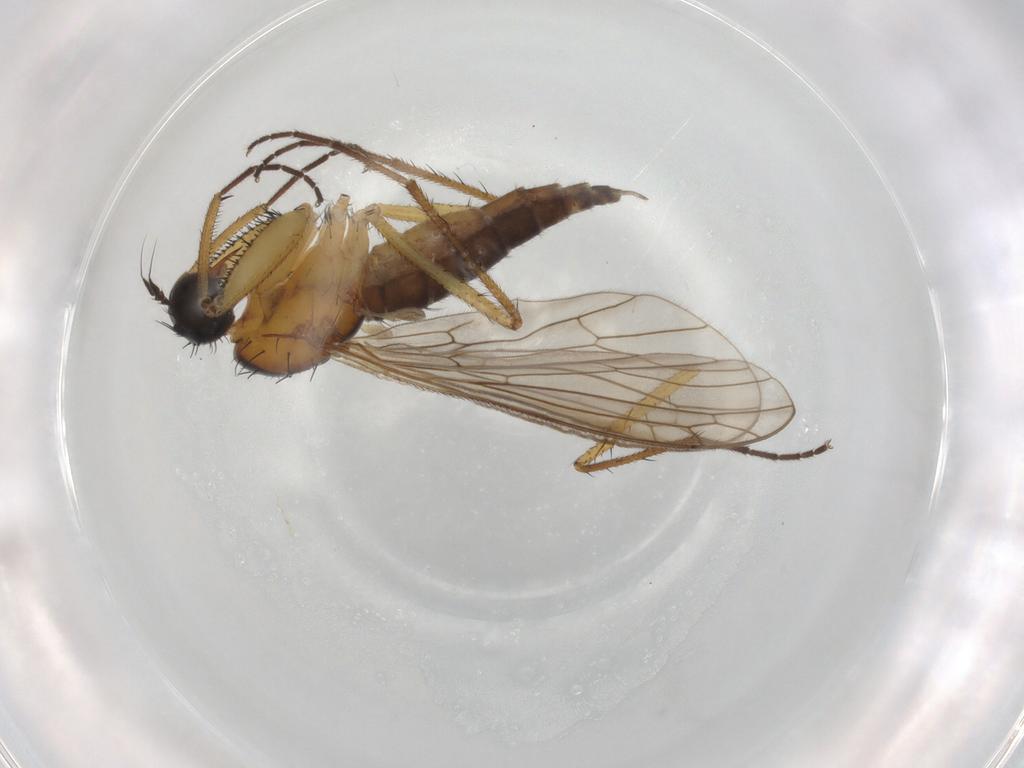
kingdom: Animalia
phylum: Arthropoda
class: Insecta
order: Diptera
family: Empididae
